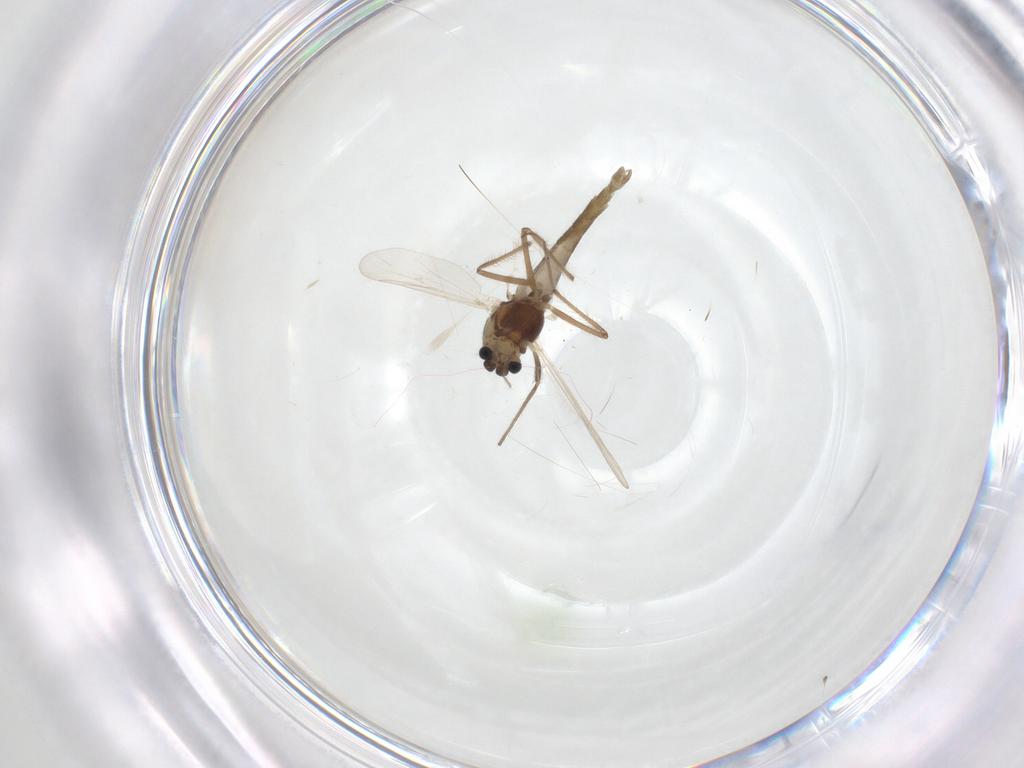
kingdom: Animalia
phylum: Arthropoda
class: Insecta
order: Diptera
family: Chironomidae
